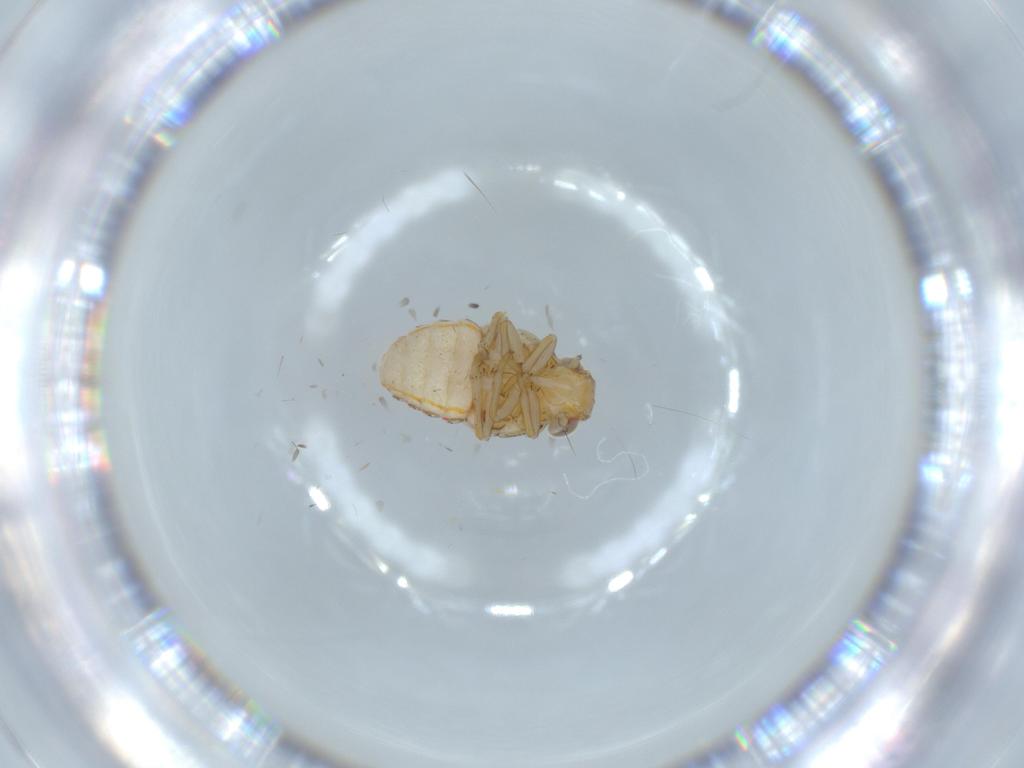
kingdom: Animalia
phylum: Arthropoda
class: Insecta
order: Hemiptera
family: Issidae
